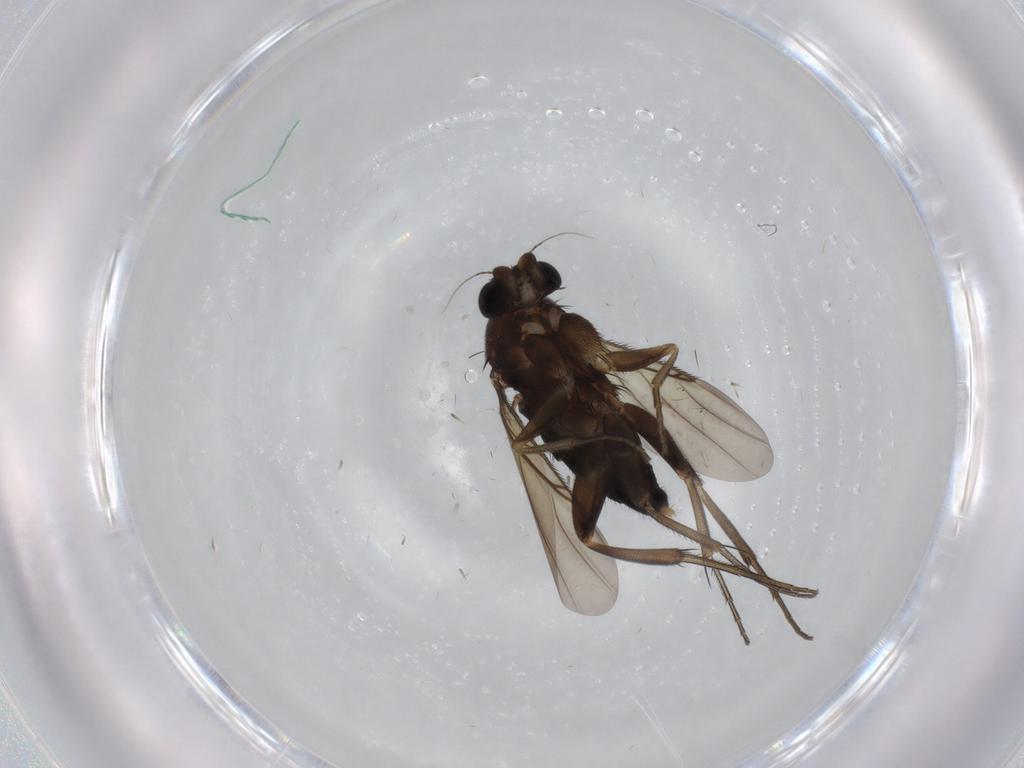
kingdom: Animalia
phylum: Arthropoda
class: Insecta
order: Diptera
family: Phoridae
